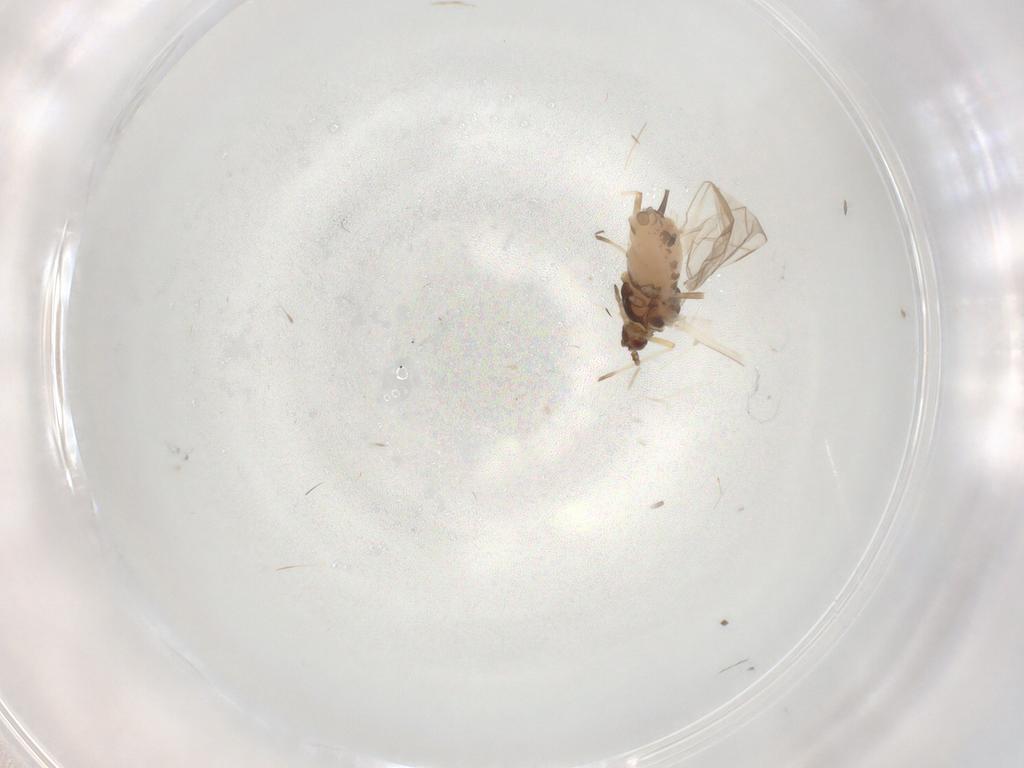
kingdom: Animalia
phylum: Arthropoda
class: Insecta
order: Hemiptera
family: Aphididae
